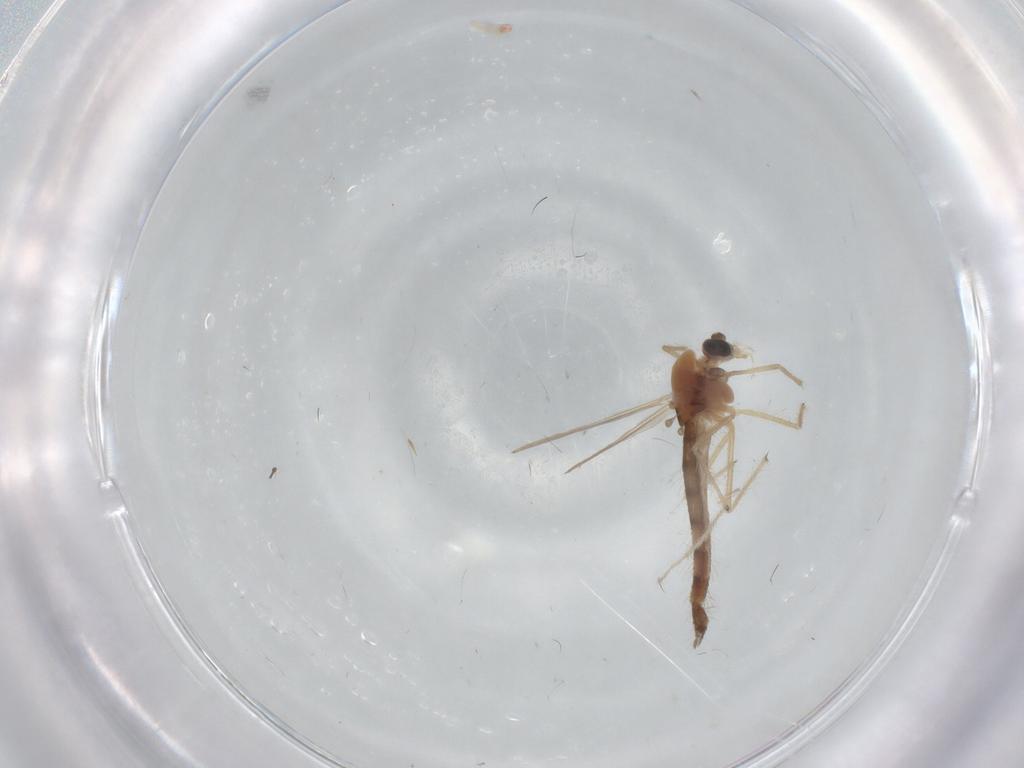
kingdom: Animalia
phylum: Arthropoda
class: Insecta
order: Diptera
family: Chironomidae
